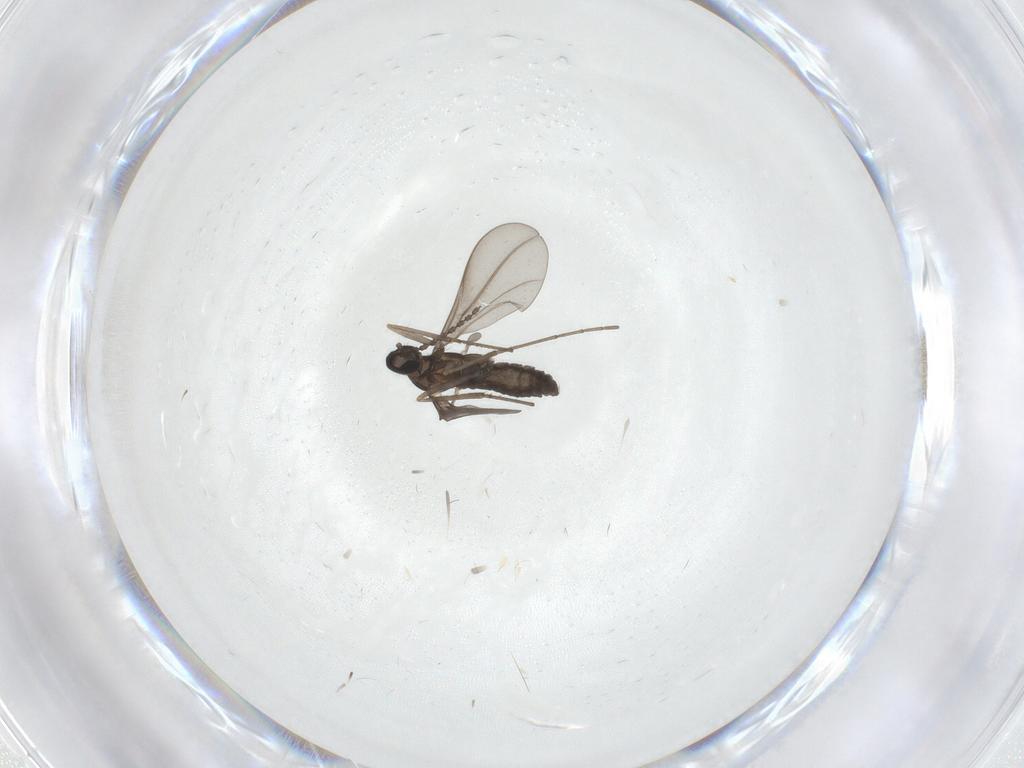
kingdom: Animalia
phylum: Arthropoda
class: Insecta
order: Diptera
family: Cecidomyiidae
